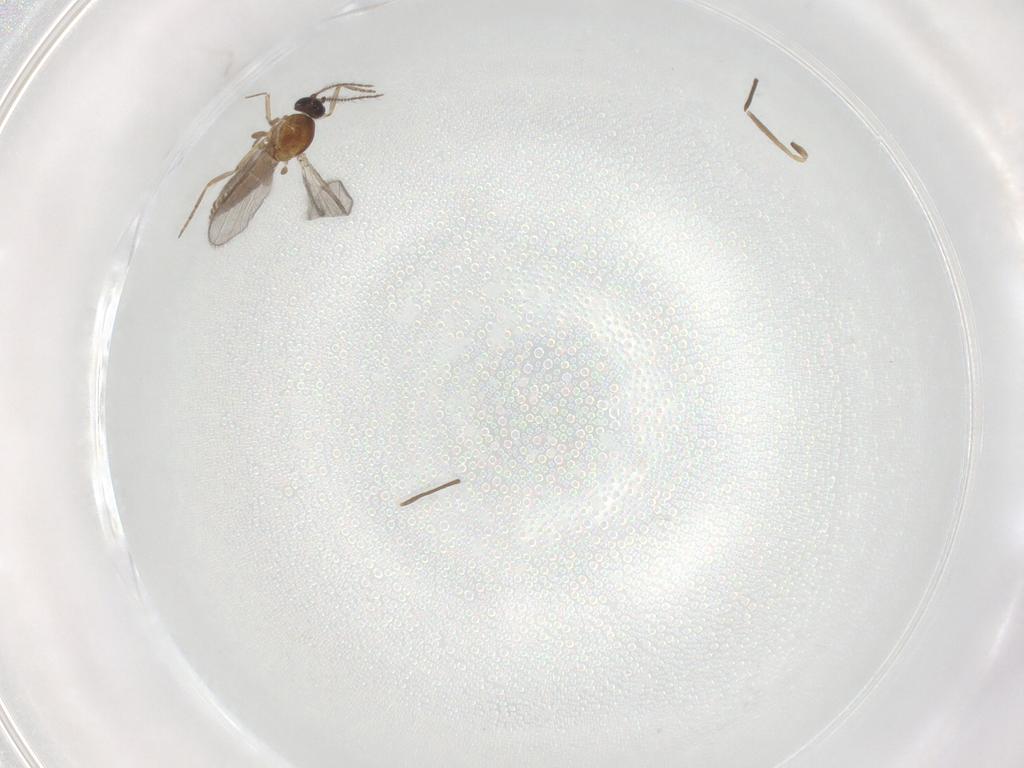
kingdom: Animalia
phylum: Arthropoda
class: Insecta
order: Diptera
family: Ceratopogonidae
